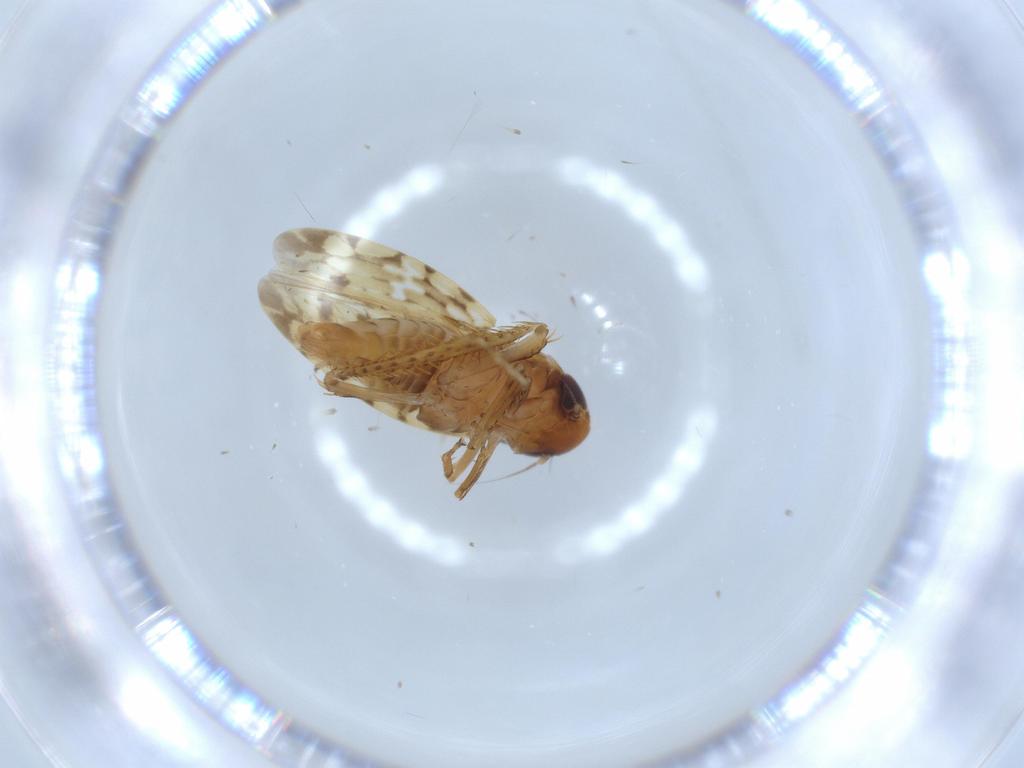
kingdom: Animalia
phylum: Arthropoda
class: Insecta
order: Hemiptera
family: Cicadellidae
